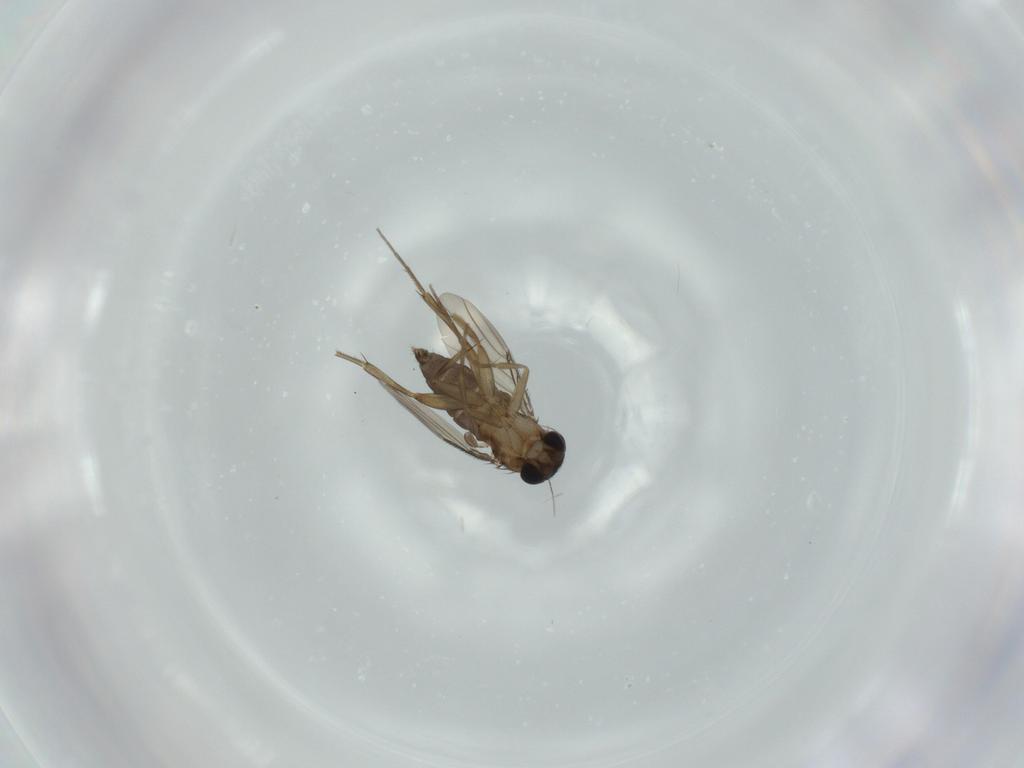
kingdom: Animalia
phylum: Arthropoda
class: Insecta
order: Diptera
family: Phoridae
